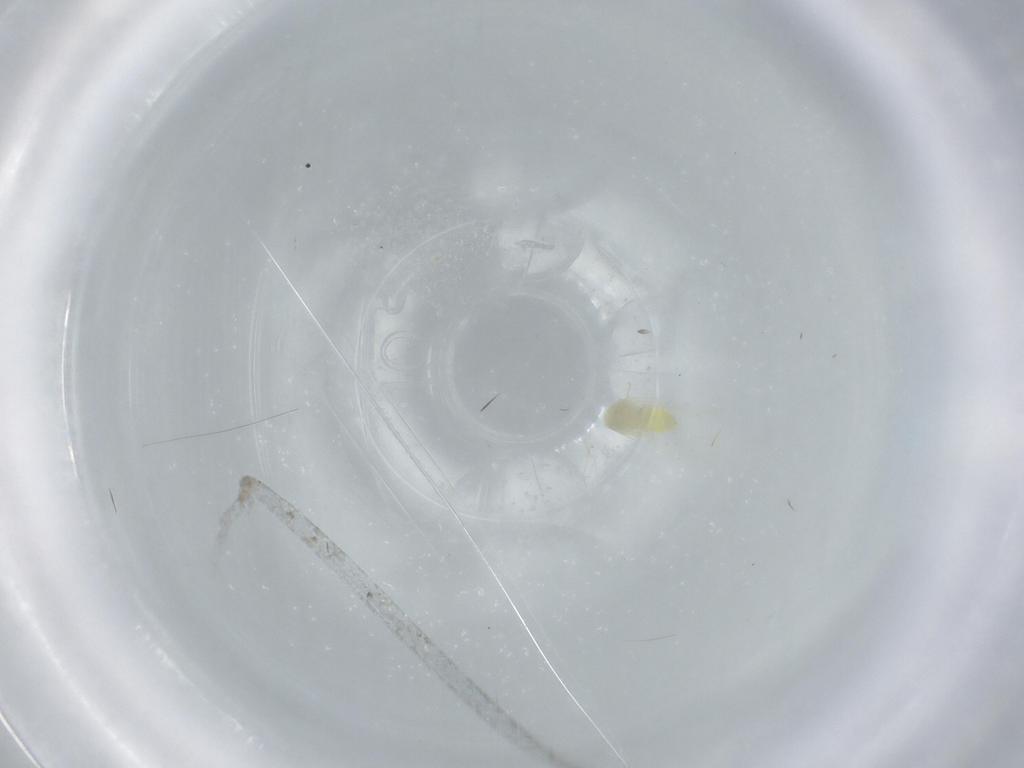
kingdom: Animalia
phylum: Arthropoda
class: Insecta
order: Hemiptera
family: Aleyrodidae
